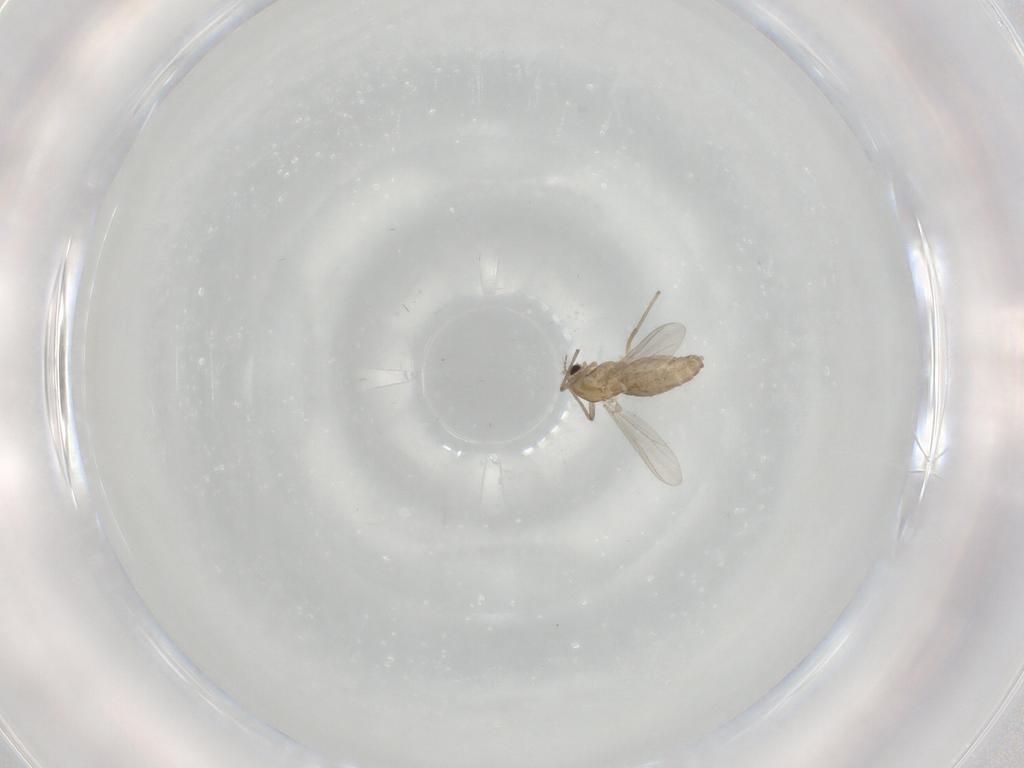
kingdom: Animalia
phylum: Arthropoda
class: Insecta
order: Diptera
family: Chironomidae
